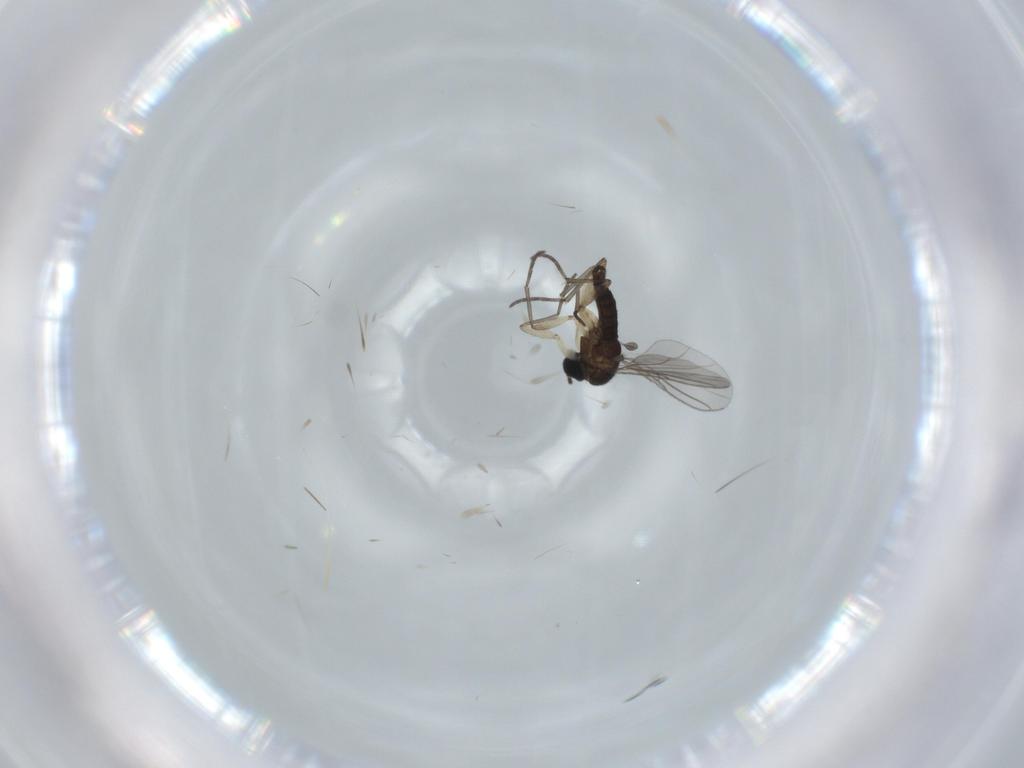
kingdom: Animalia
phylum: Arthropoda
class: Insecta
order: Diptera
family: Sciaridae
